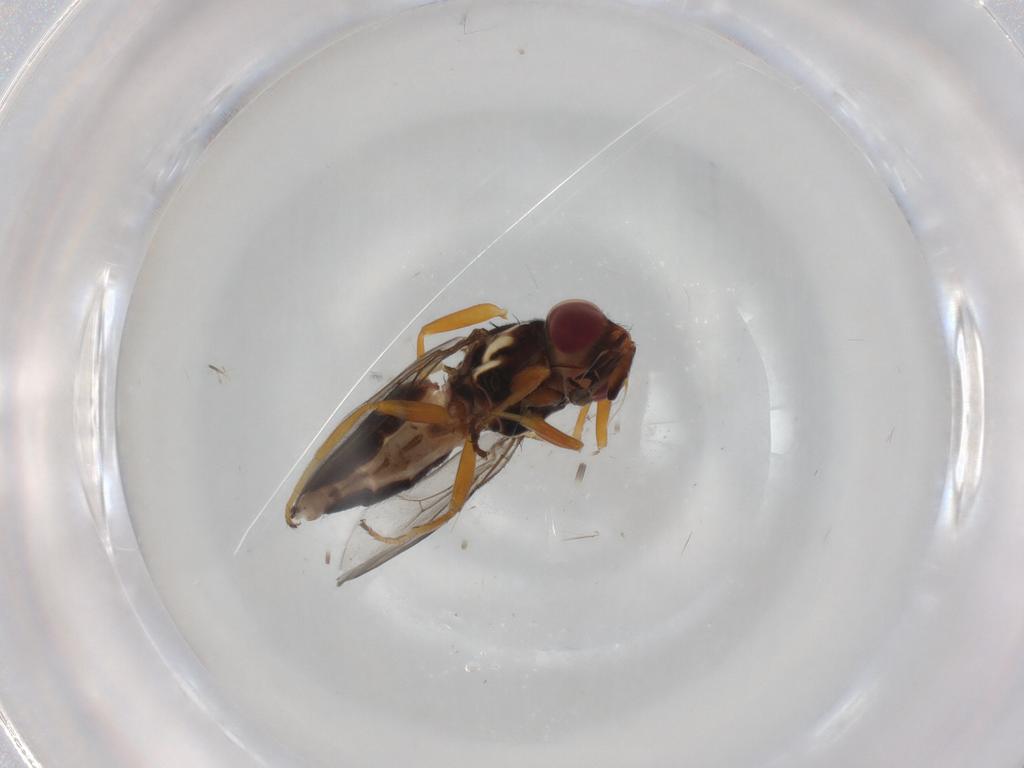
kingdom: Animalia
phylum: Arthropoda
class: Insecta
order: Diptera
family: Chloropidae
